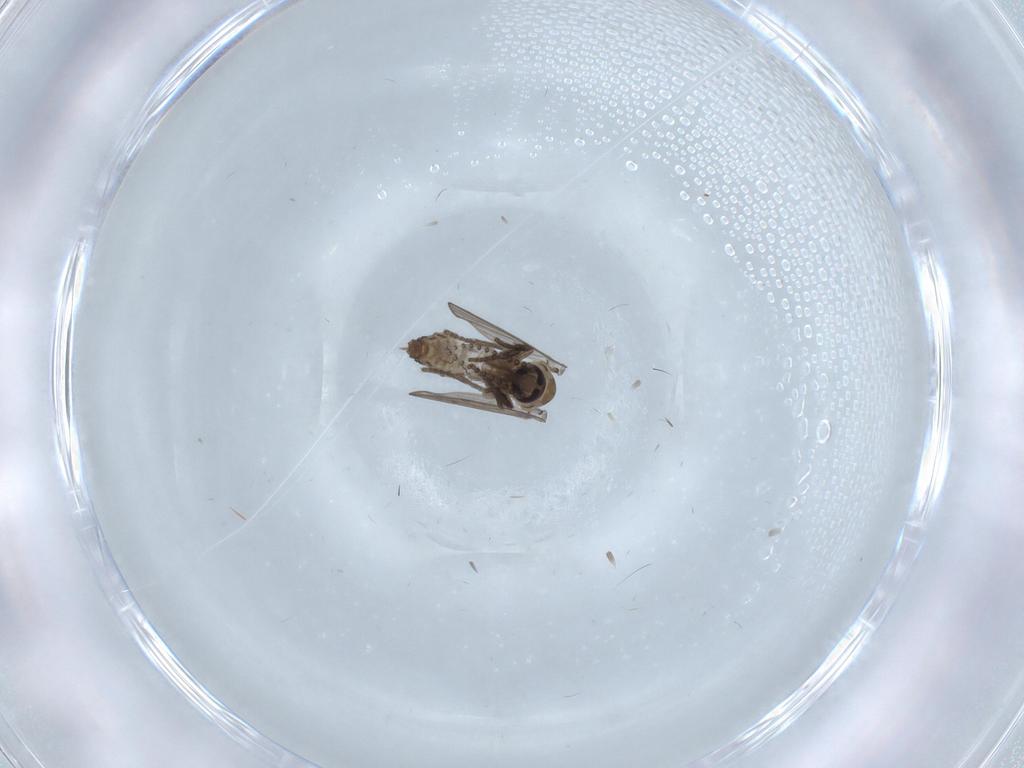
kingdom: Animalia
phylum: Arthropoda
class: Insecta
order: Diptera
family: Psychodidae
